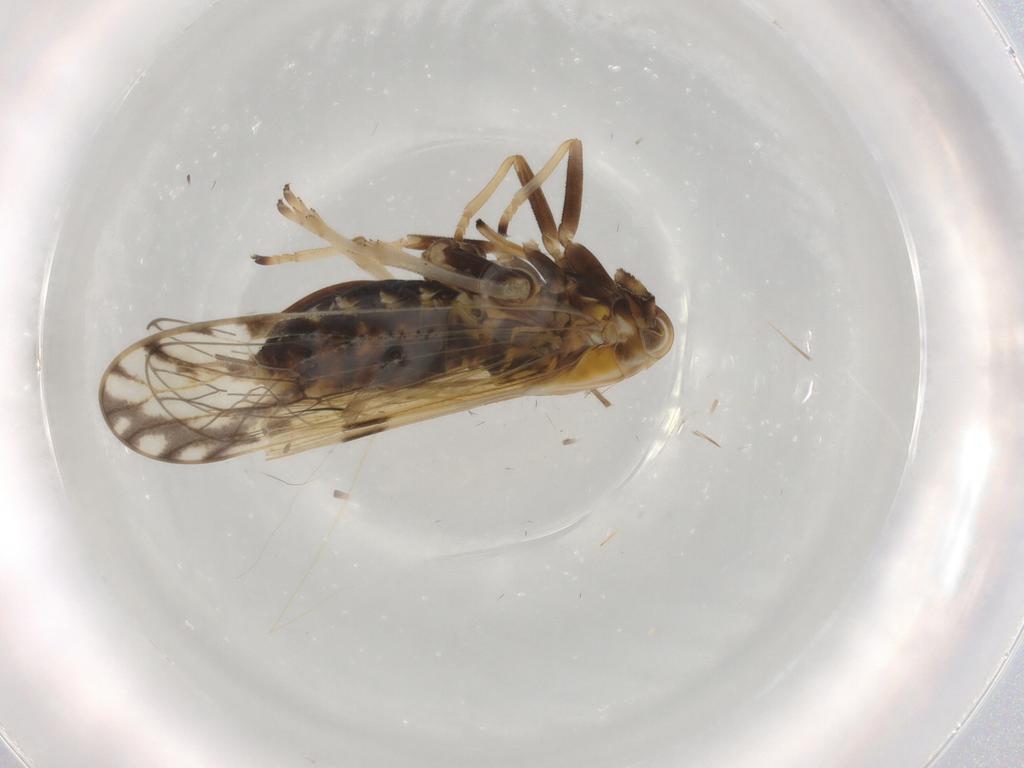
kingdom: Animalia
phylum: Arthropoda
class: Insecta
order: Hemiptera
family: Delphacidae
